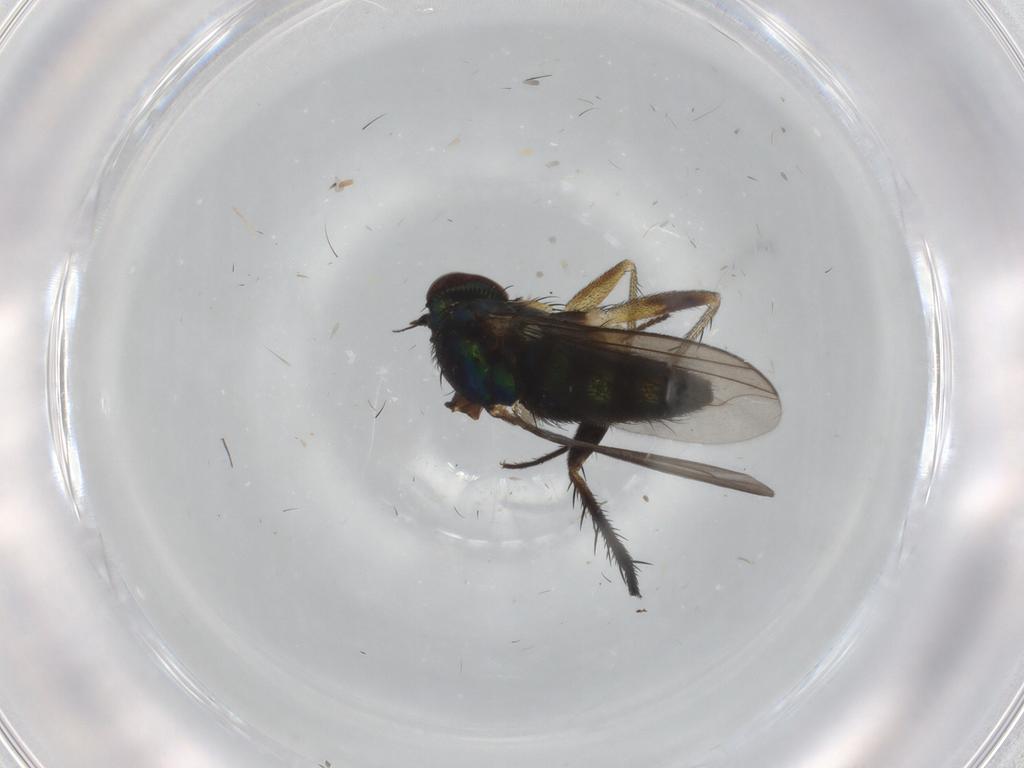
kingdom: Animalia
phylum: Arthropoda
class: Insecta
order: Diptera
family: Dolichopodidae
